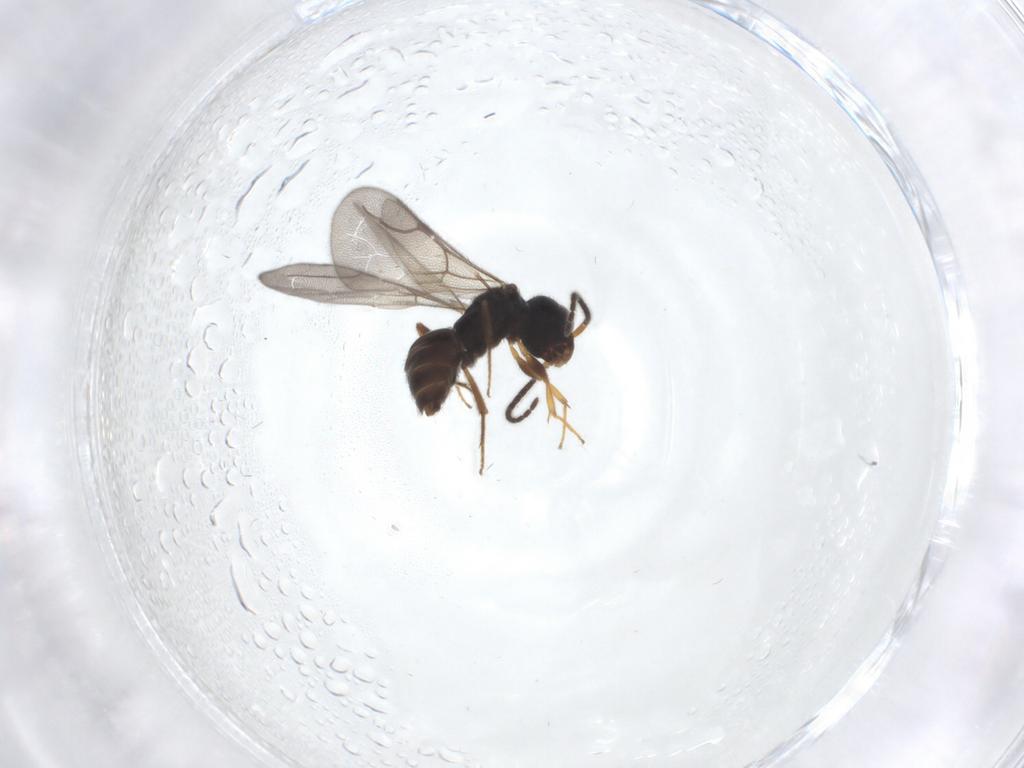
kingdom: Animalia
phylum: Arthropoda
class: Insecta
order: Hymenoptera
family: Bethylidae
